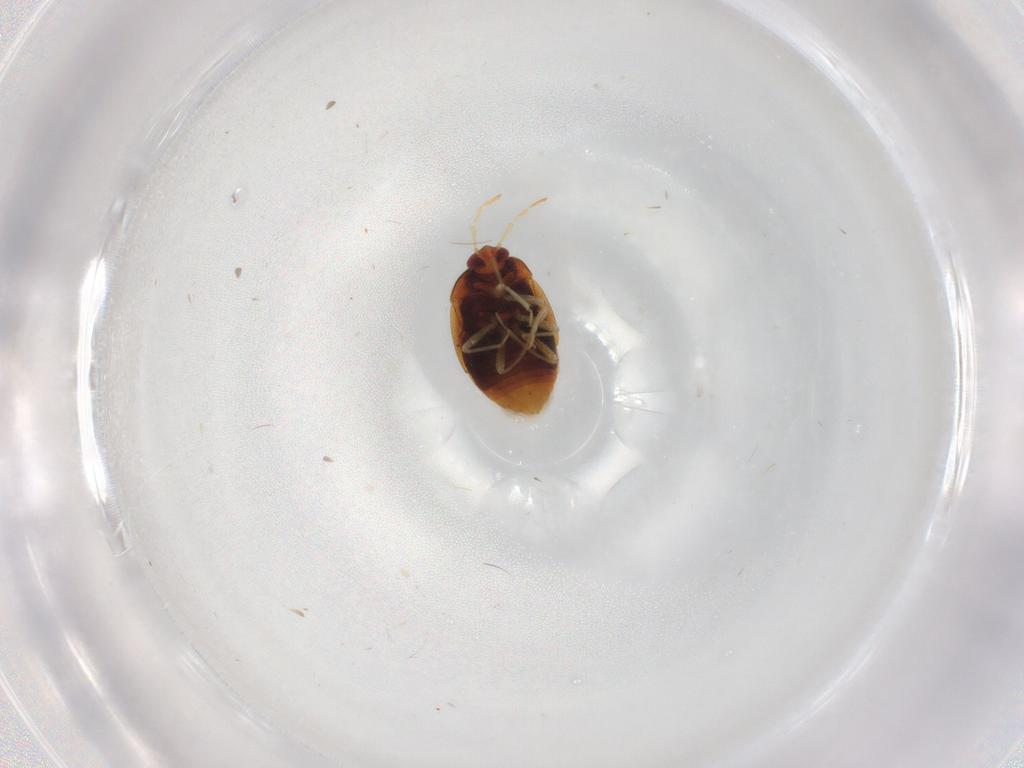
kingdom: Animalia
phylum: Arthropoda
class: Insecta
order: Hemiptera
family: Anthocoridae
